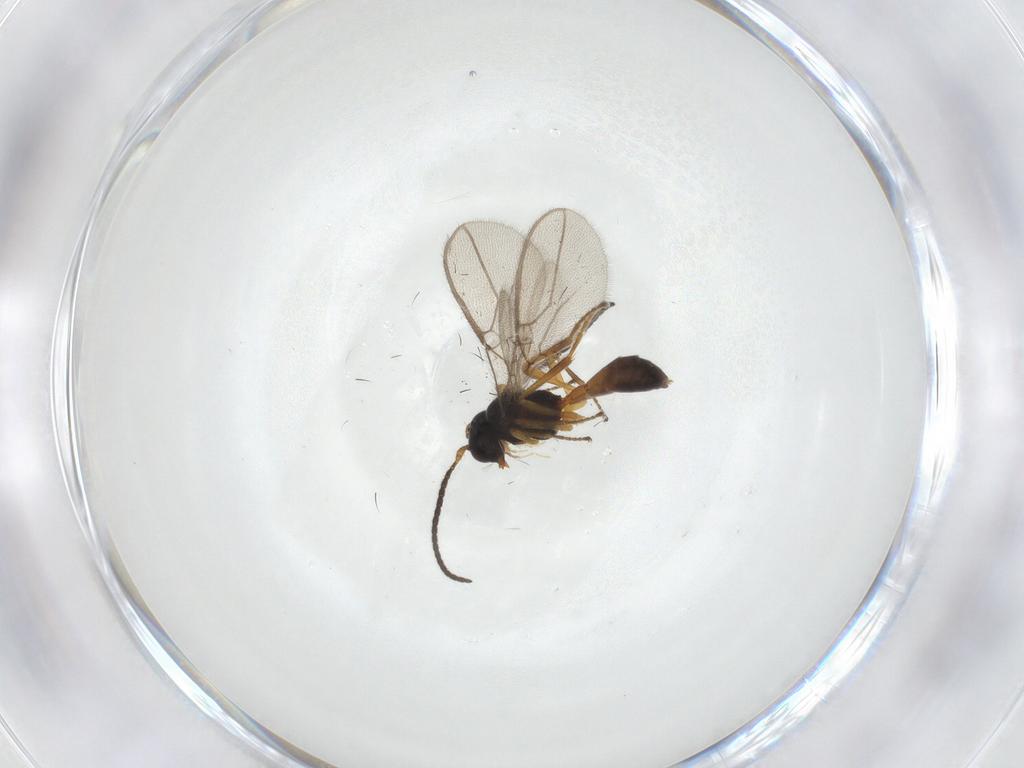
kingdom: Animalia
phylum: Arthropoda
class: Insecta
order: Hymenoptera
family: Braconidae
